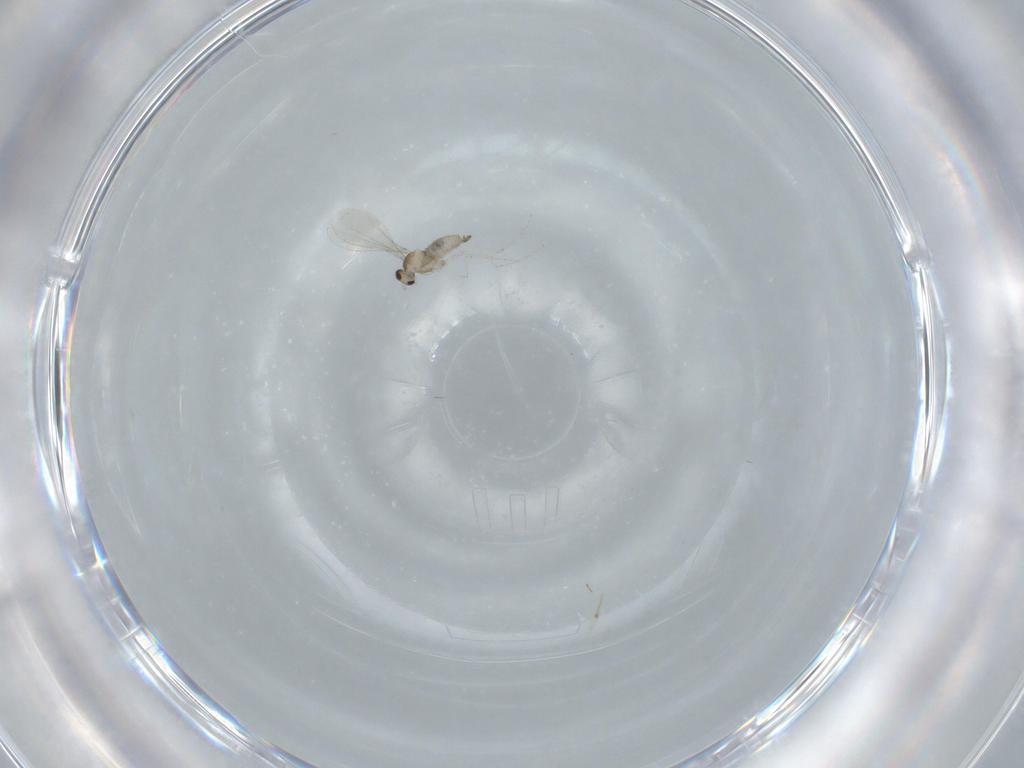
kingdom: Animalia
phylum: Arthropoda
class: Insecta
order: Diptera
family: Cecidomyiidae
